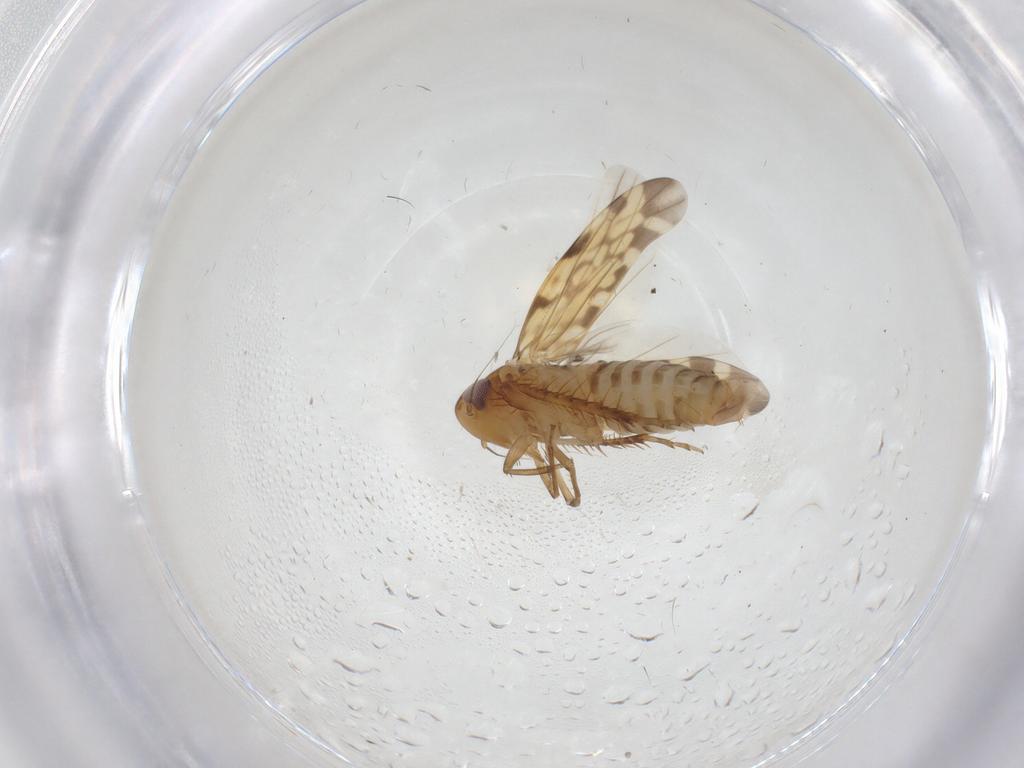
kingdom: Animalia
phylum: Arthropoda
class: Insecta
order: Hemiptera
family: Cicadellidae
